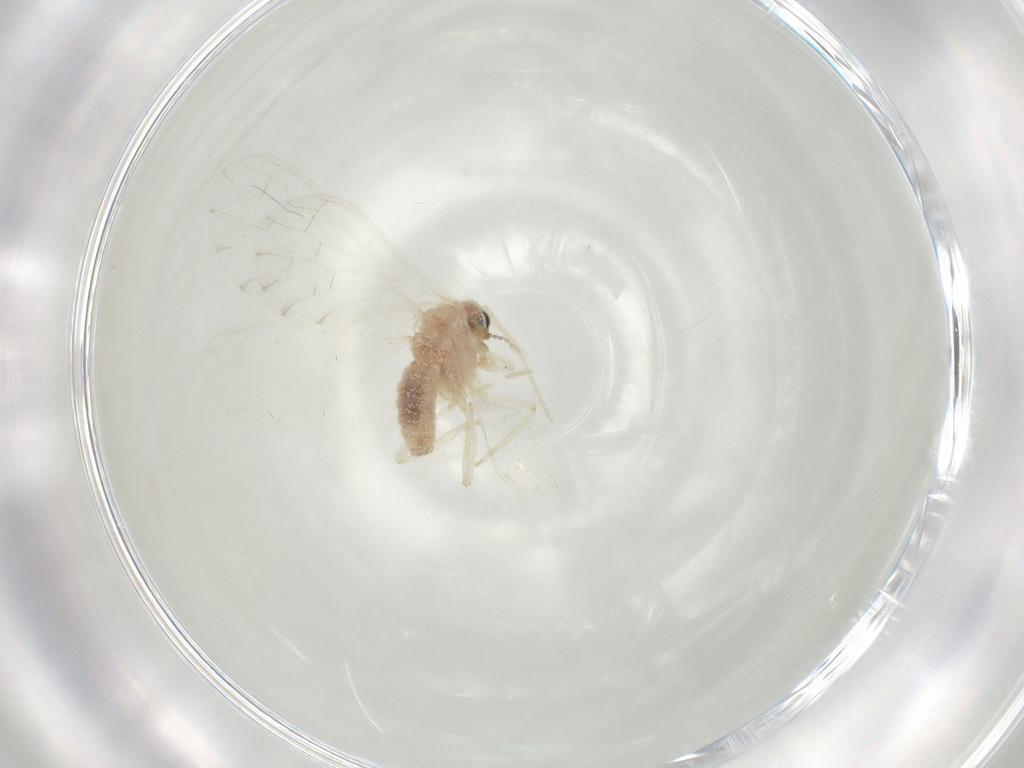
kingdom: Animalia
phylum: Arthropoda
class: Insecta
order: Neuroptera
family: Coniopterygidae
